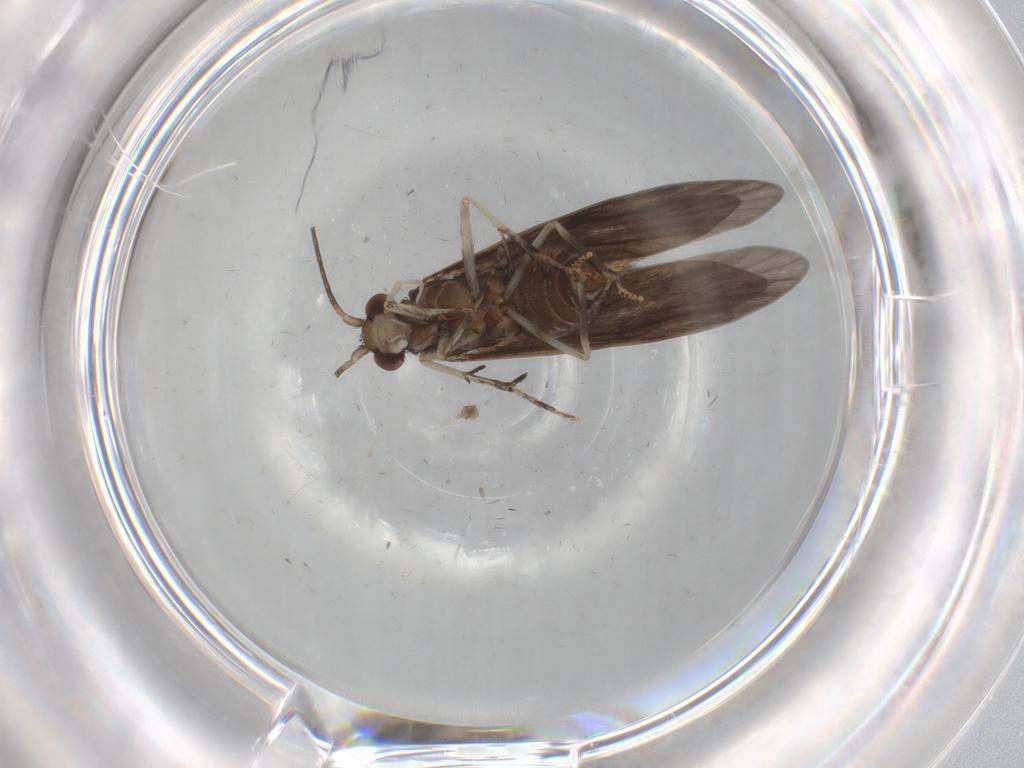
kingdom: Animalia
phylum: Arthropoda
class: Insecta
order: Trichoptera
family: Xiphocentronidae
